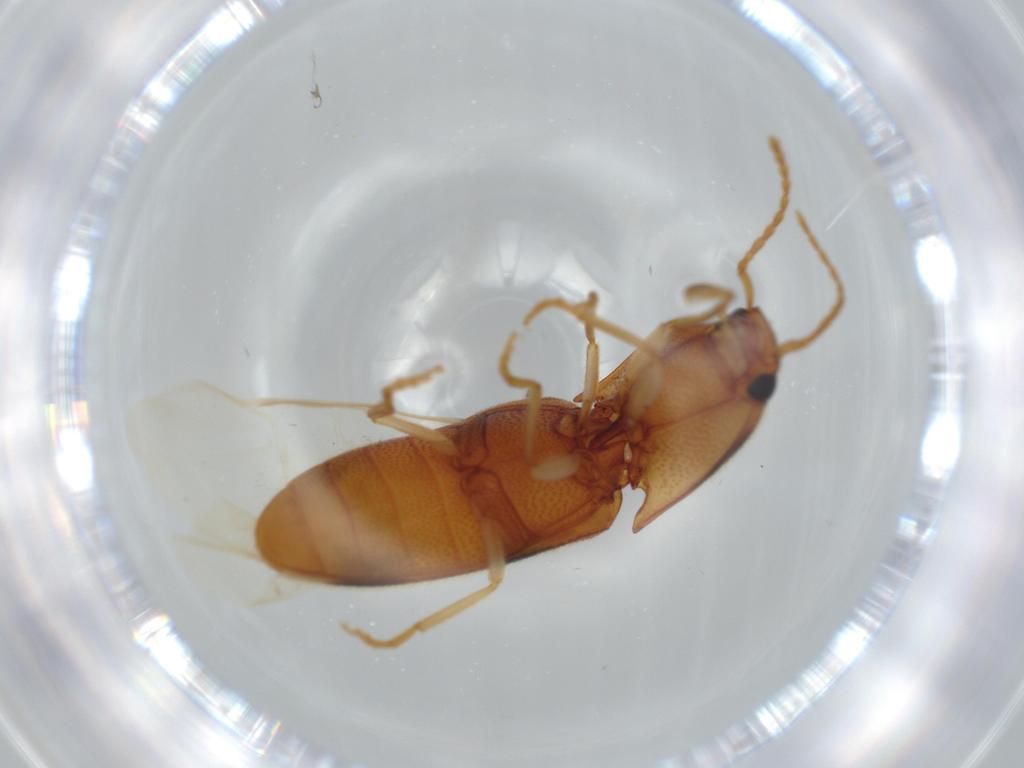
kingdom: Animalia
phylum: Arthropoda
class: Insecta
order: Coleoptera
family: Elateridae
